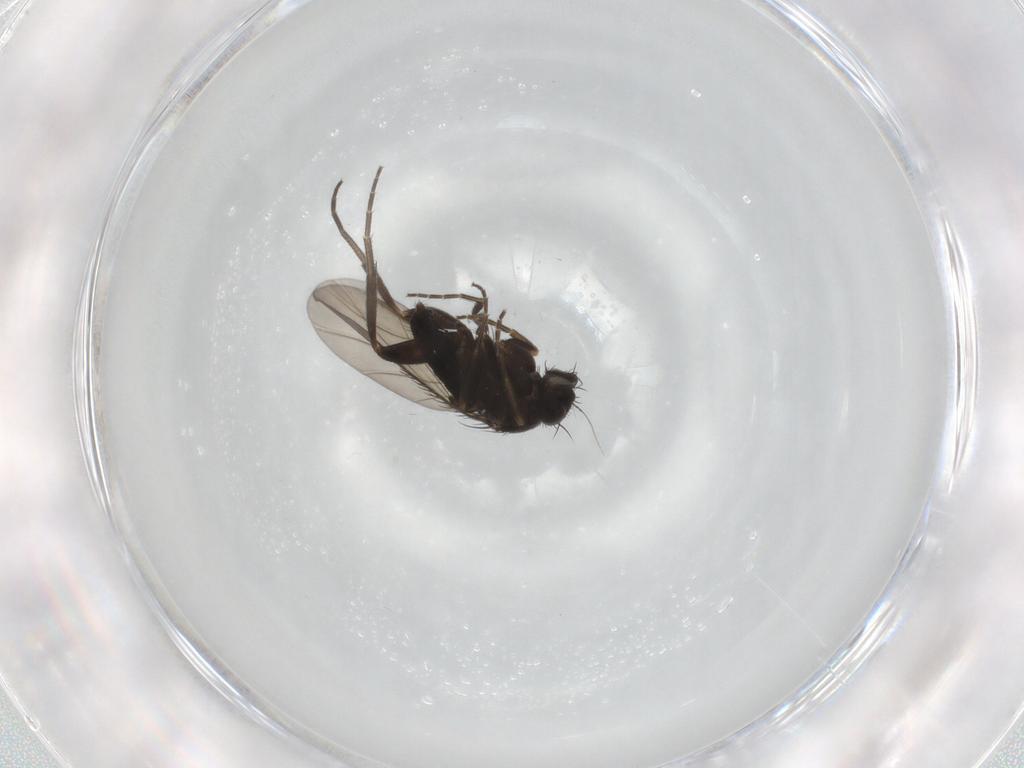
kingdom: Animalia
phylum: Arthropoda
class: Insecta
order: Diptera
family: Phoridae
